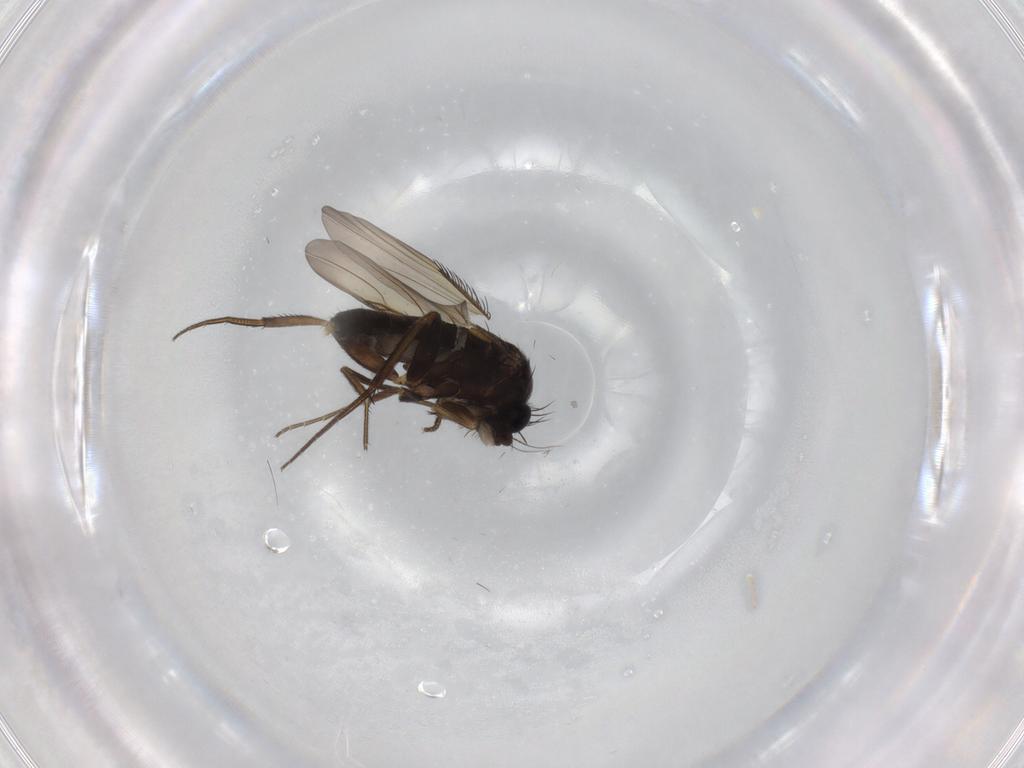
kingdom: Animalia
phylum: Arthropoda
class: Insecta
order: Diptera
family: Phoridae
